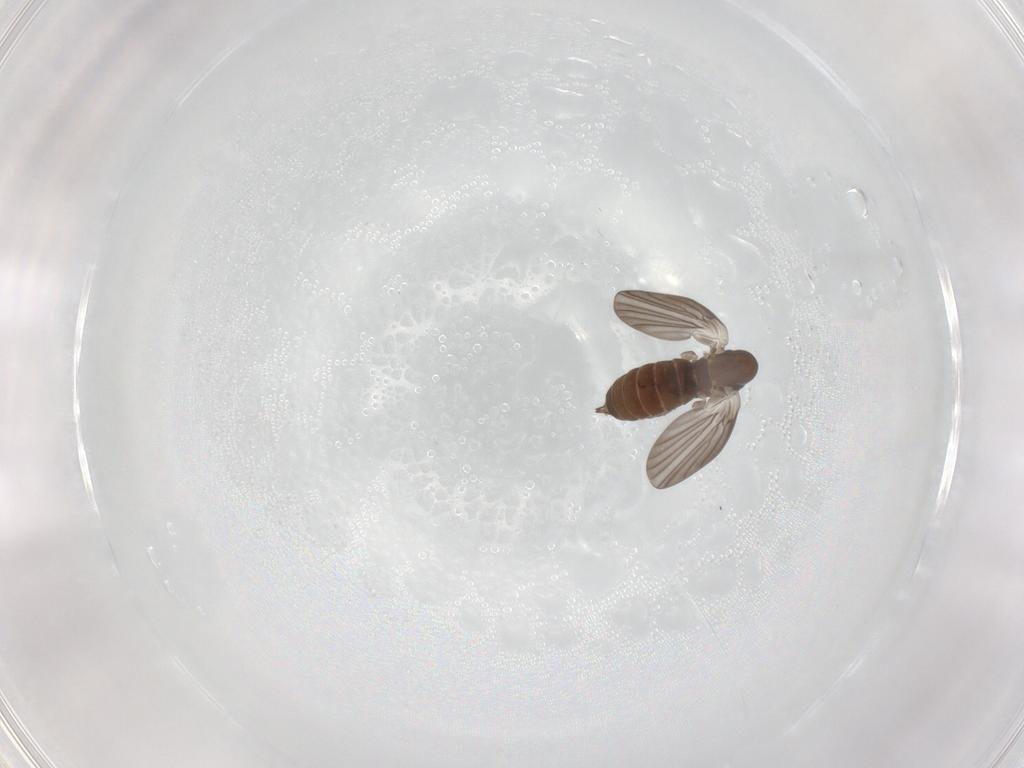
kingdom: Animalia
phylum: Arthropoda
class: Insecta
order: Diptera
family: Psychodidae
